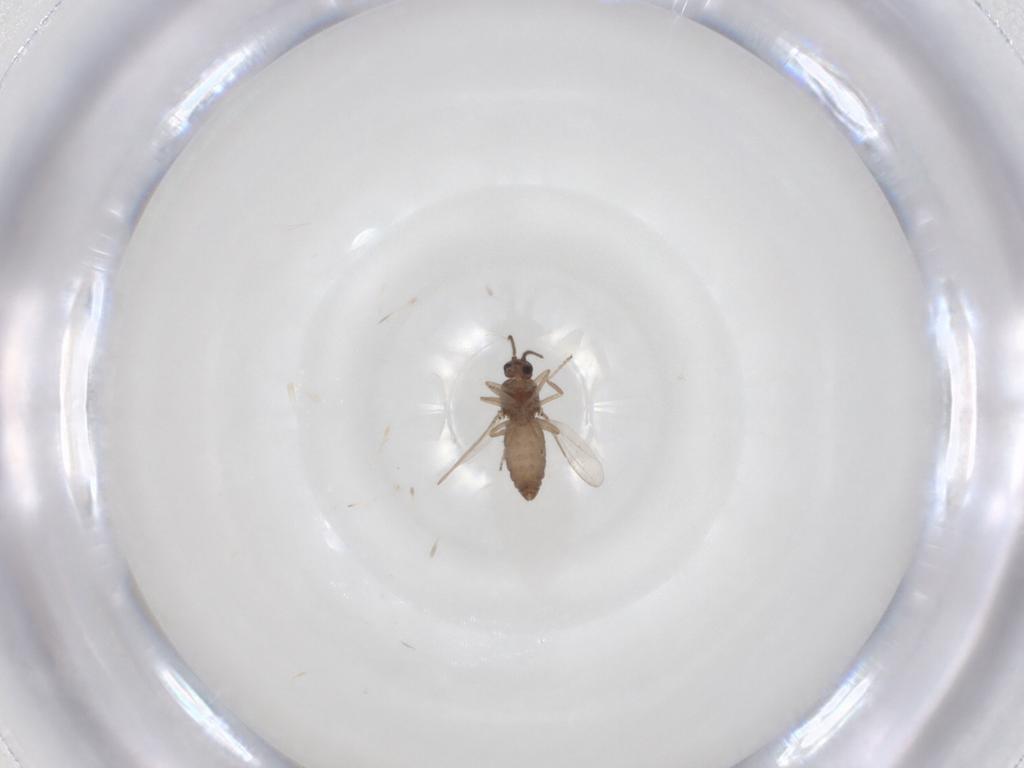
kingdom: Animalia
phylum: Arthropoda
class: Insecta
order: Diptera
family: Ceratopogonidae
